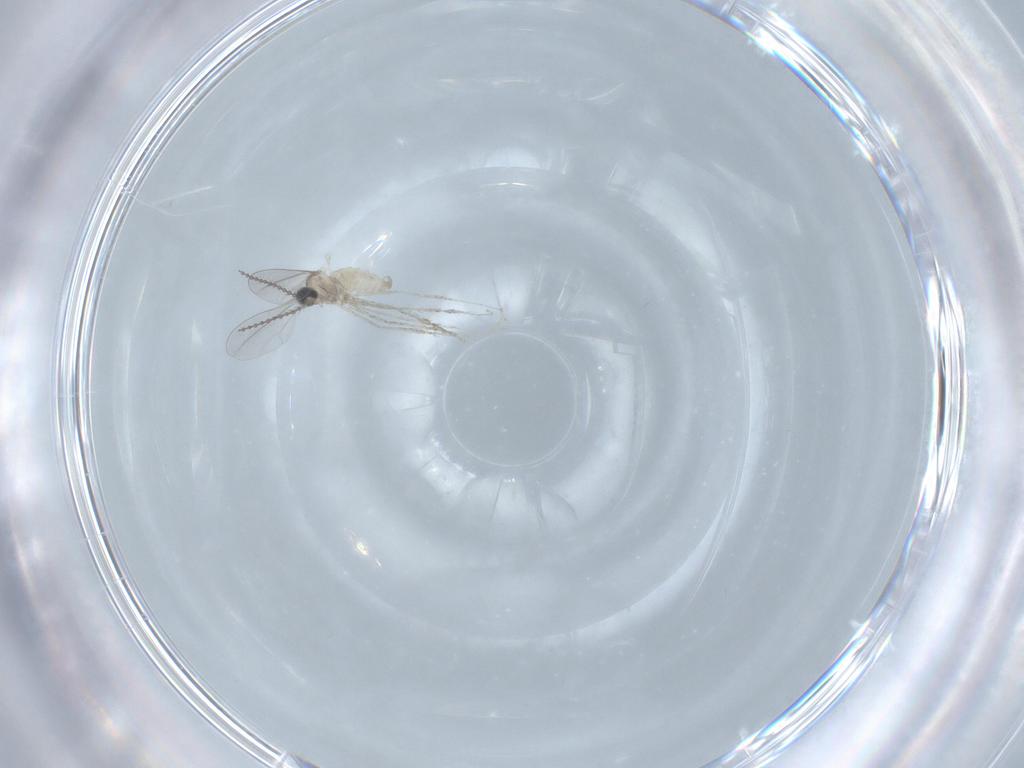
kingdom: Animalia
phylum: Arthropoda
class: Insecta
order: Diptera
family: Cecidomyiidae
